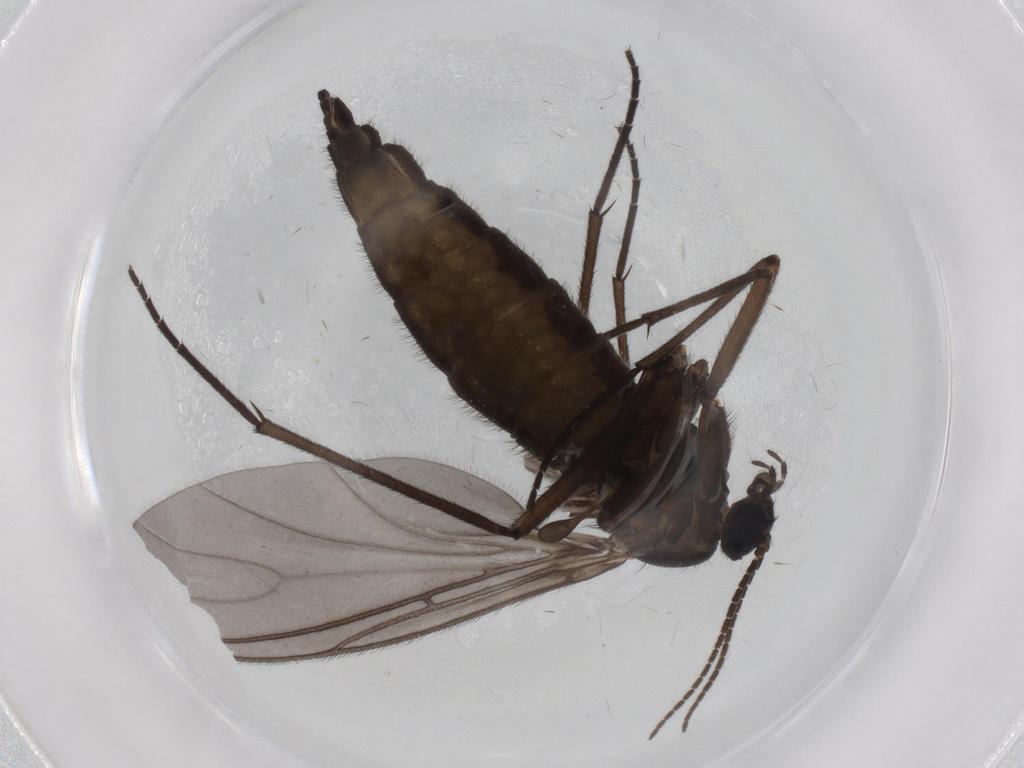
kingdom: Animalia
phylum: Arthropoda
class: Insecta
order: Diptera
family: Sciaridae
